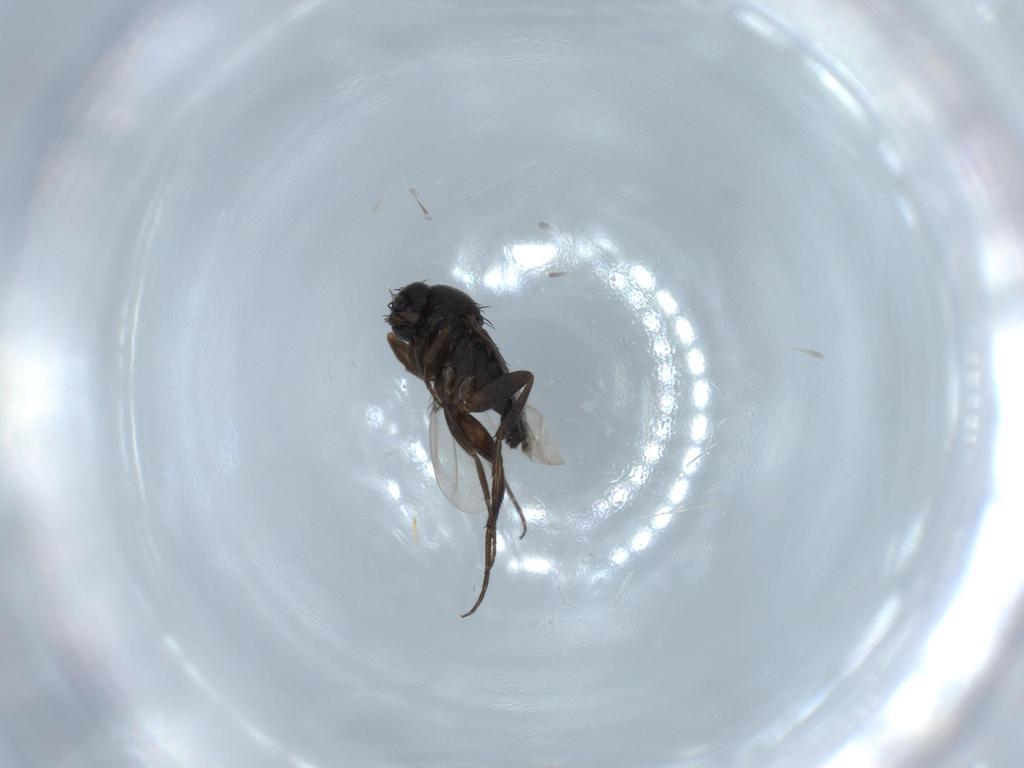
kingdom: Animalia
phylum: Arthropoda
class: Insecta
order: Diptera
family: Phoridae
